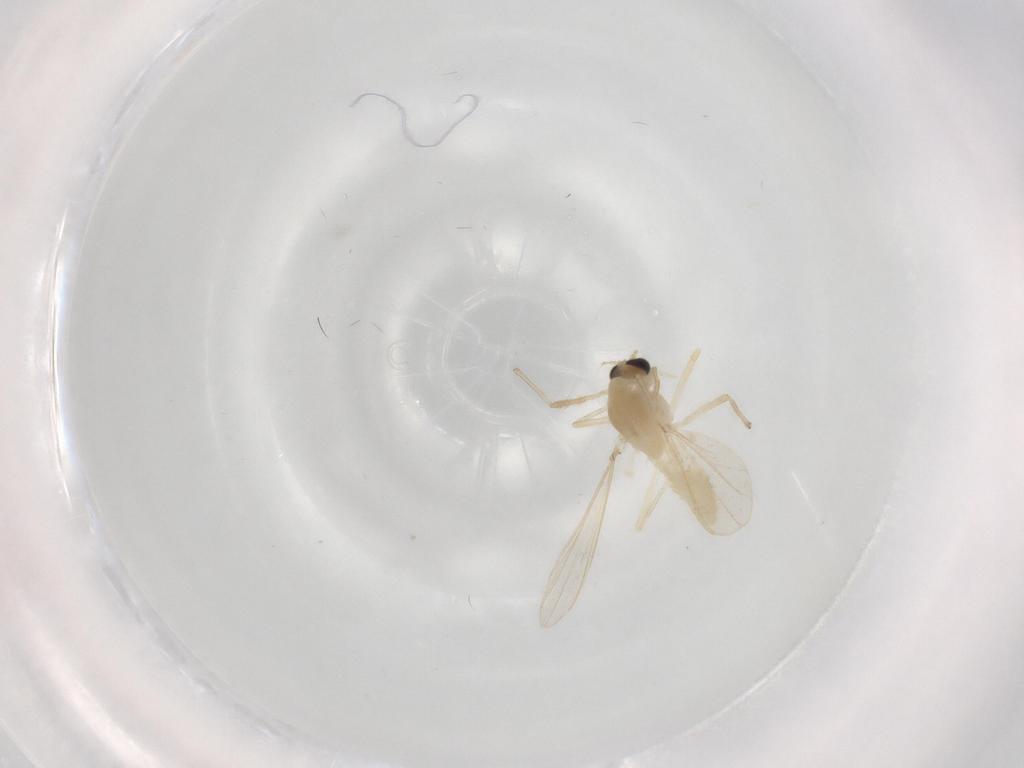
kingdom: Animalia
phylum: Arthropoda
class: Insecta
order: Diptera
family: Chironomidae
